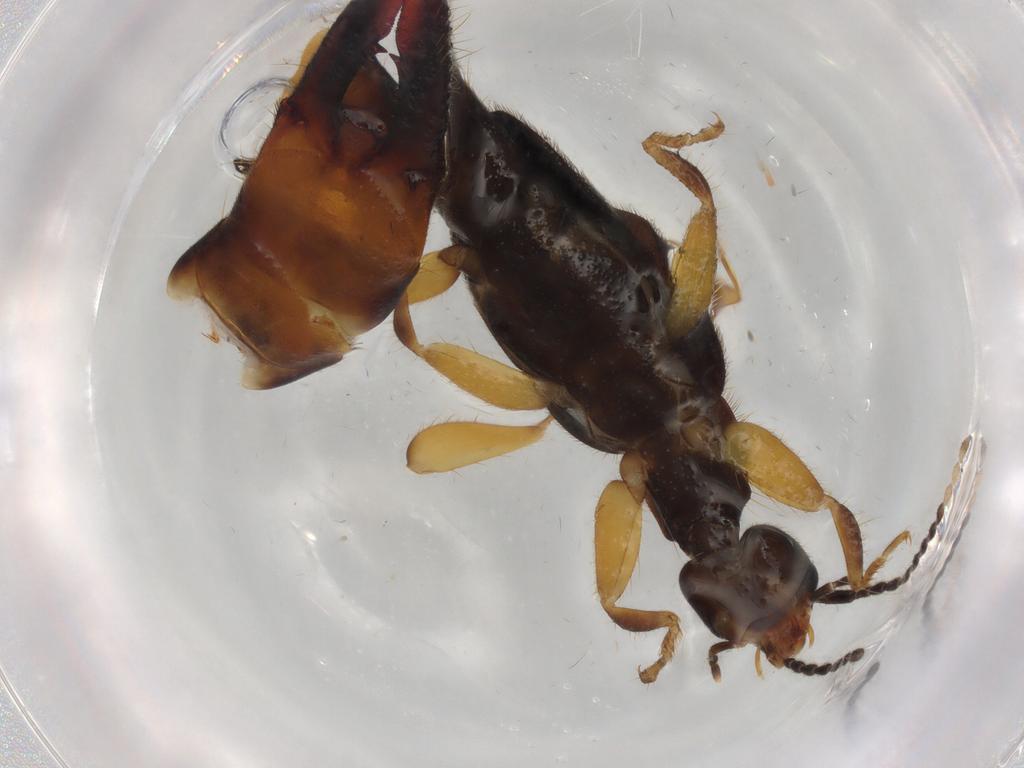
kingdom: Animalia
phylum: Arthropoda
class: Insecta
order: Dermaptera
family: Labiduridae
